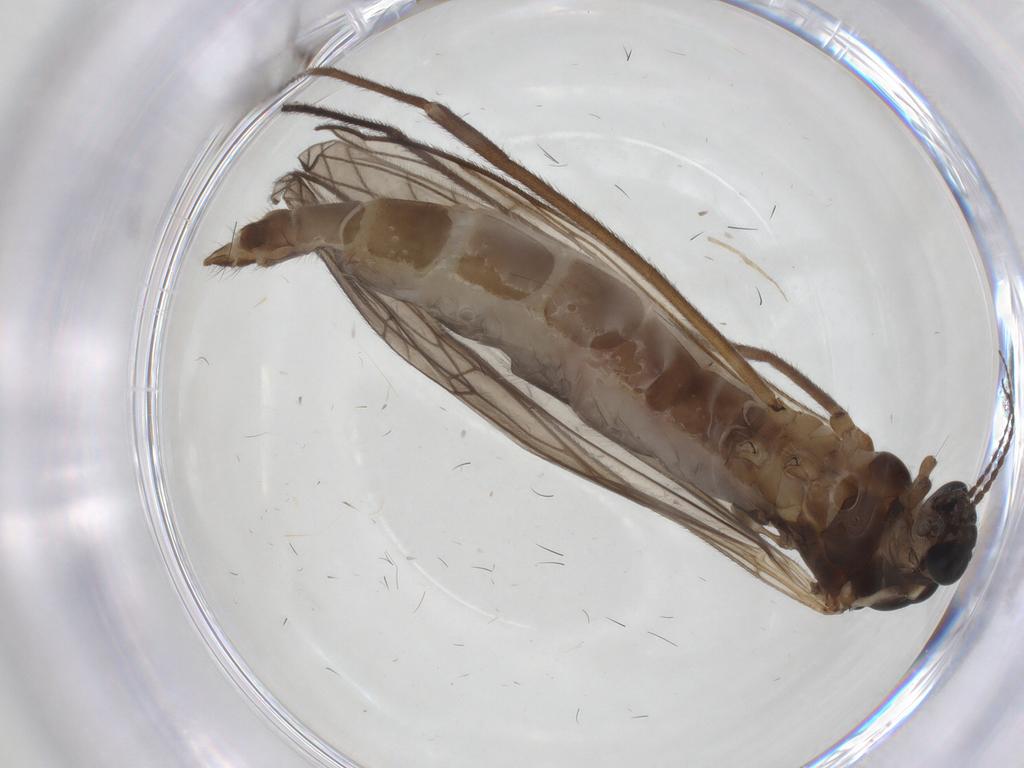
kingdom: Animalia
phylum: Arthropoda
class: Insecta
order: Diptera
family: Limoniidae
